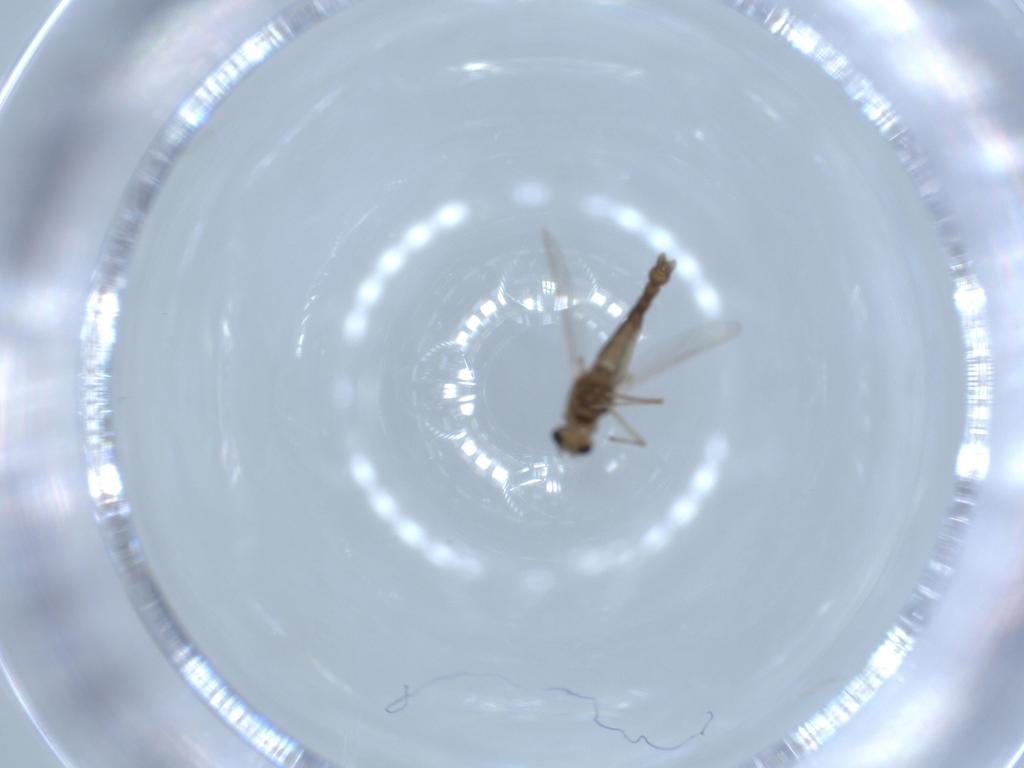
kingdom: Animalia
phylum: Arthropoda
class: Insecta
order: Diptera
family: Chironomidae
